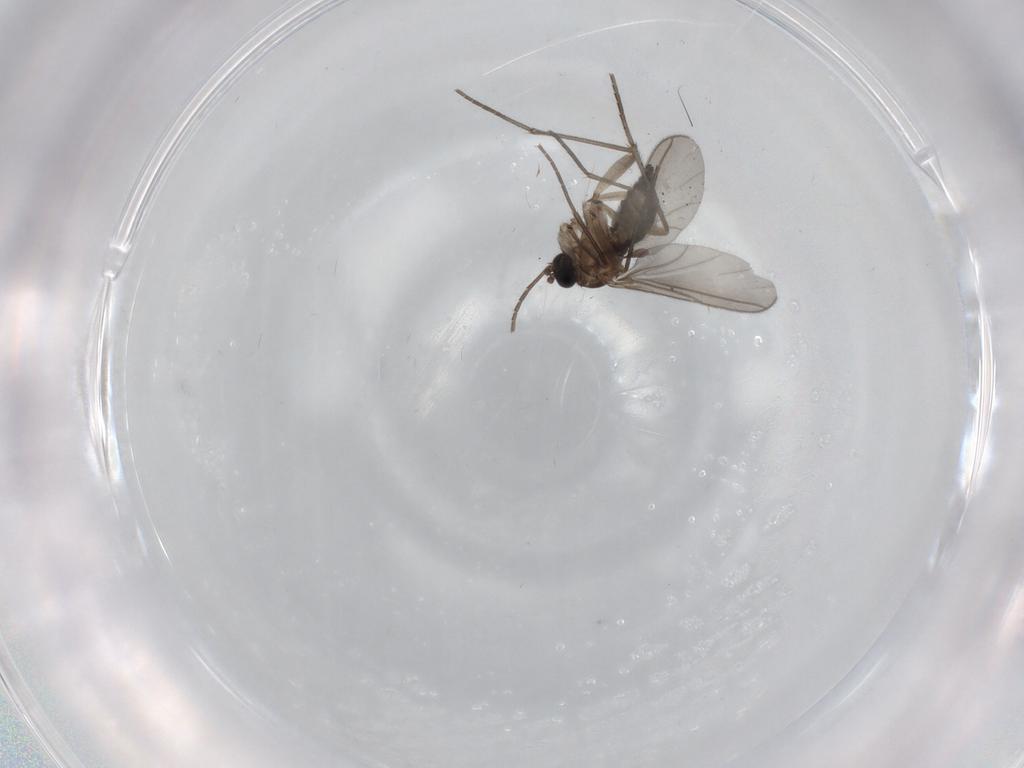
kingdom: Animalia
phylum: Arthropoda
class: Insecta
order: Diptera
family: Sciaridae
